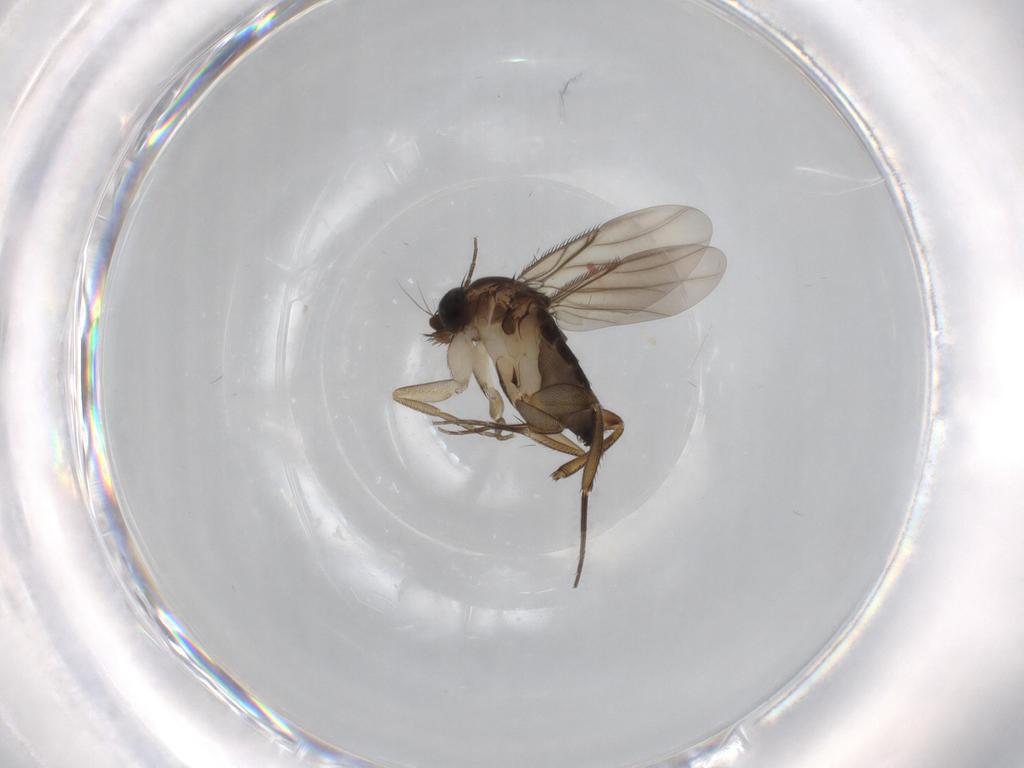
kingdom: Animalia
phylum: Arthropoda
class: Insecta
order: Diptera
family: Phoridae
